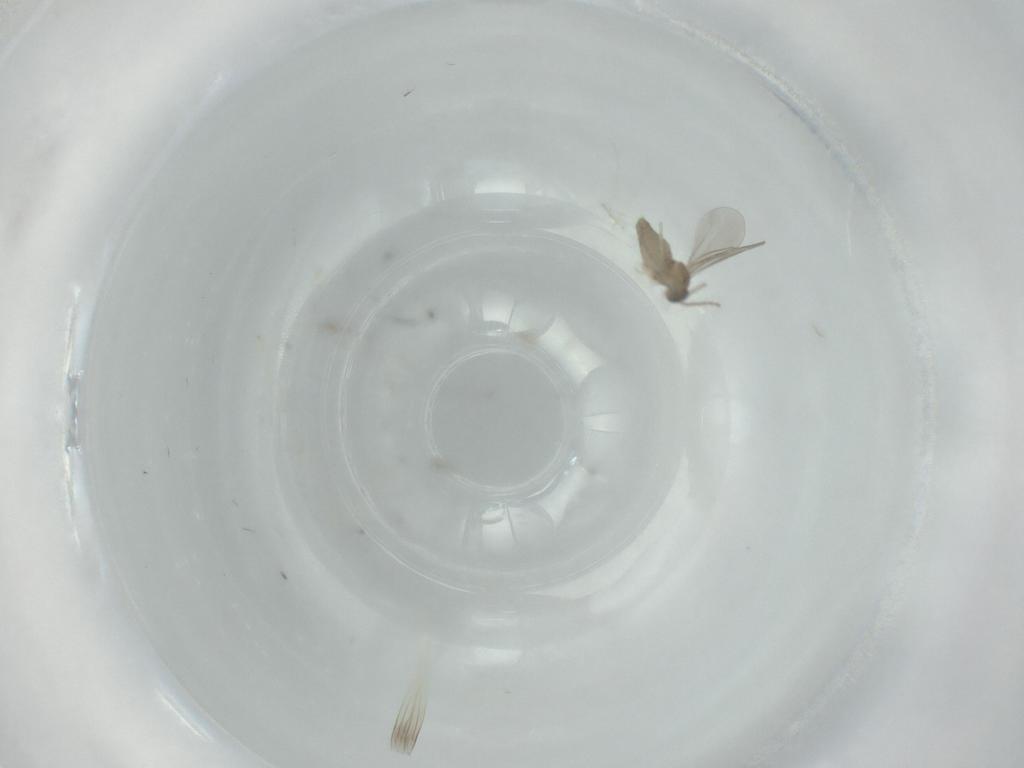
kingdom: Animalia
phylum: Arthropoda
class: Insecta
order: Diptera
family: Cecidomyiidae
